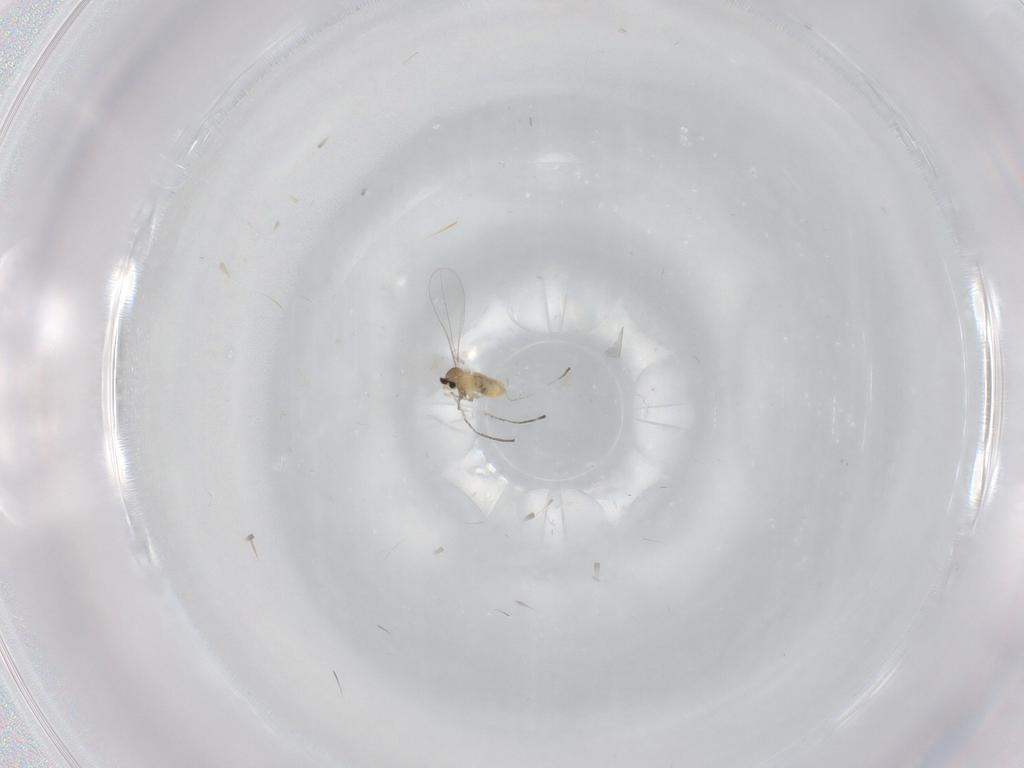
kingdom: Animalia
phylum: Arthropoda
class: Insecta
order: Diptera
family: Cecidomyiidae
